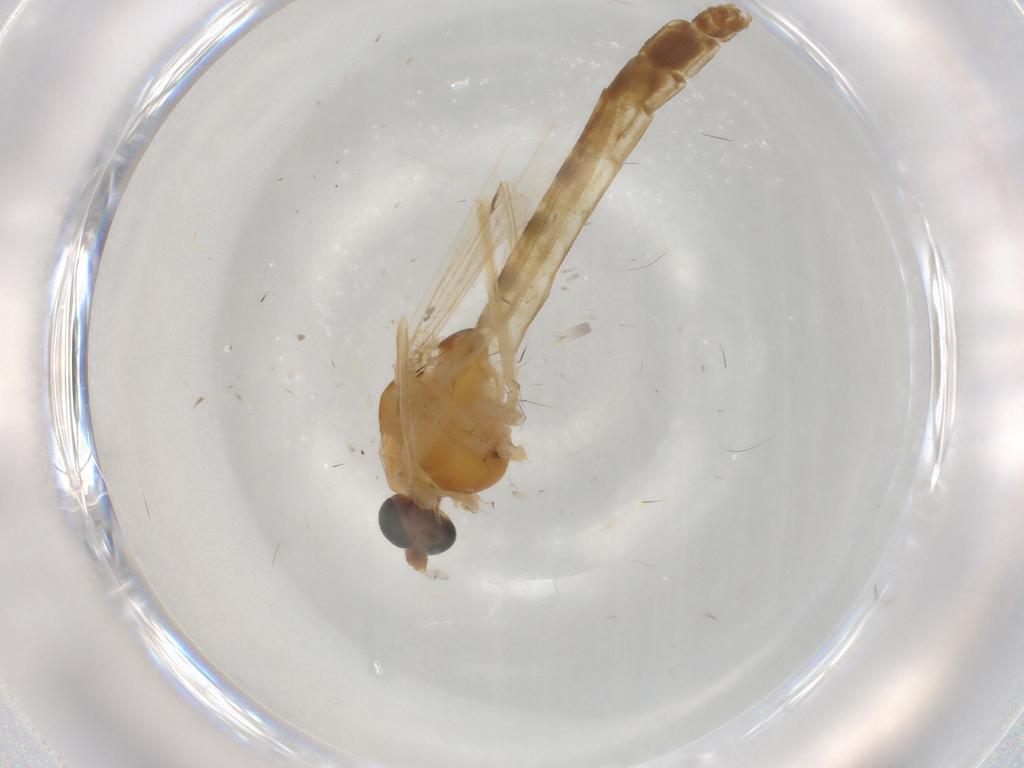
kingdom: Animalia
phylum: Arthropoda
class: Insecta
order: Diptera
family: Chironomidae
